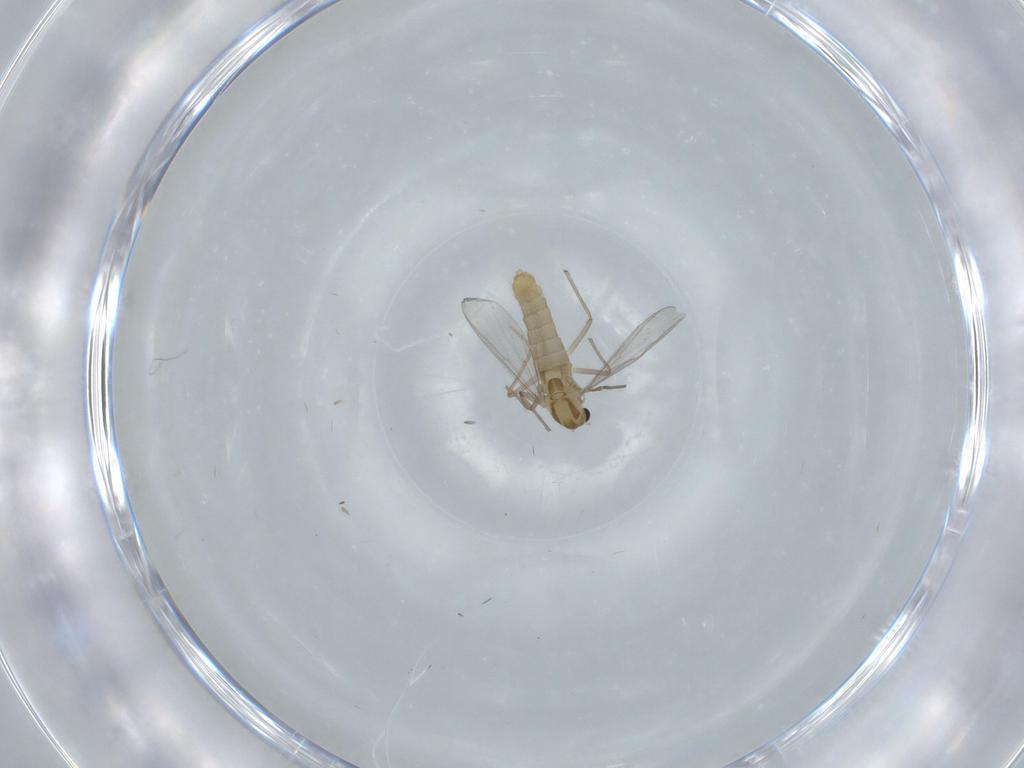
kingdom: Animalia
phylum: Arthropoda
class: Insecta
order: Diptera
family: Chironomidae
